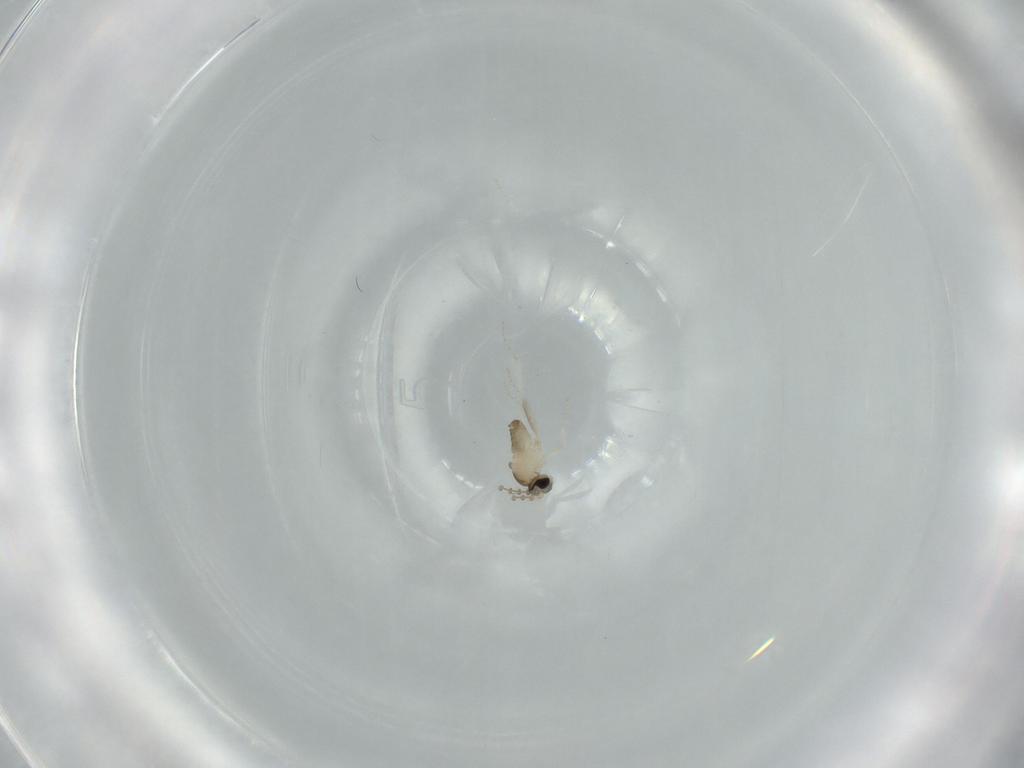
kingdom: Animalia
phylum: Arthropoda
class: Insecta
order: Diptera
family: Cecidomyiidae
